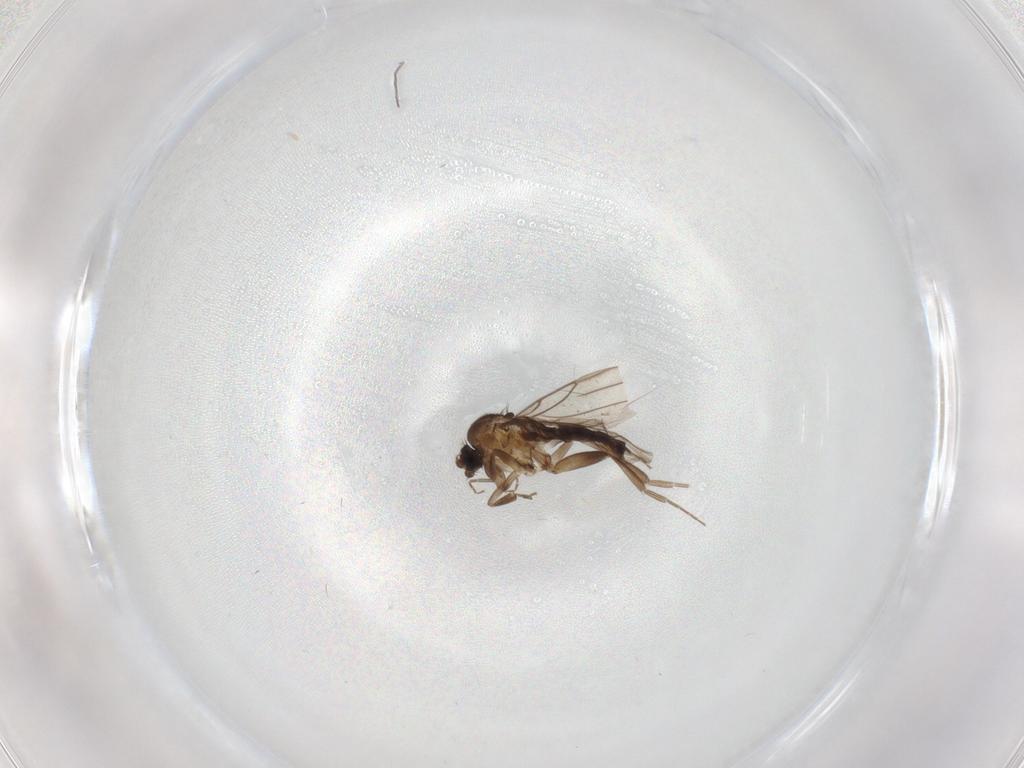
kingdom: Animalia
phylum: Arthropoda
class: Insecta
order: Diptera
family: Phoridae
